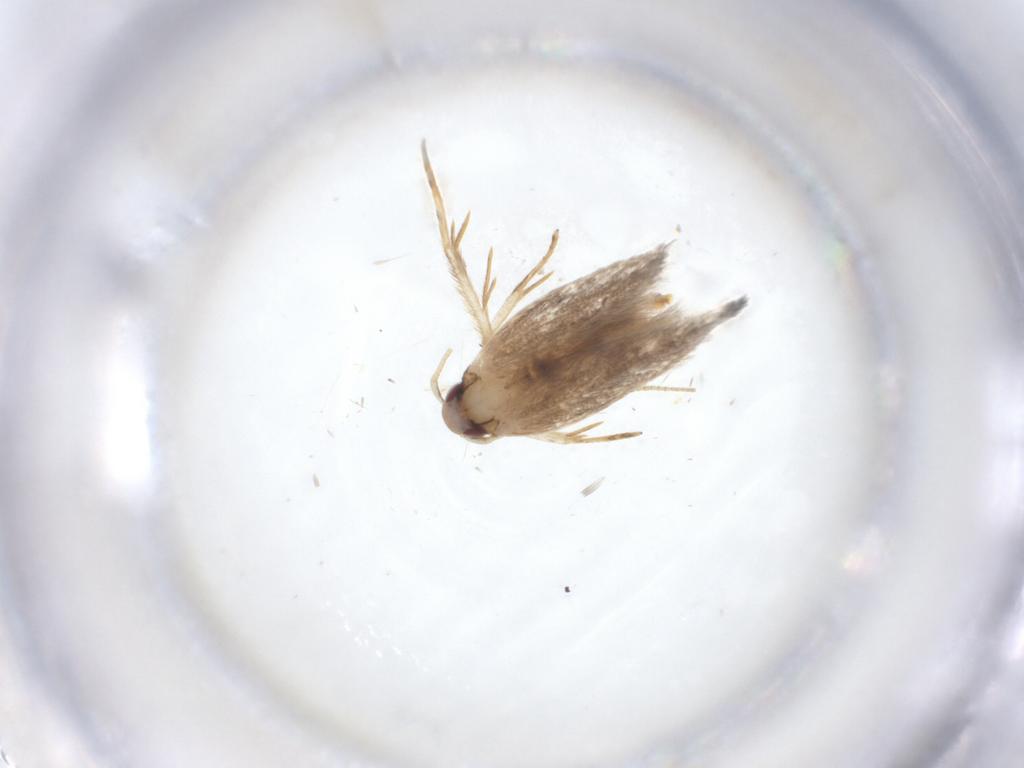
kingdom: Animalia
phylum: Arthropoda
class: Insecta
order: Lepidoptera
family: Cosmopterigidae
